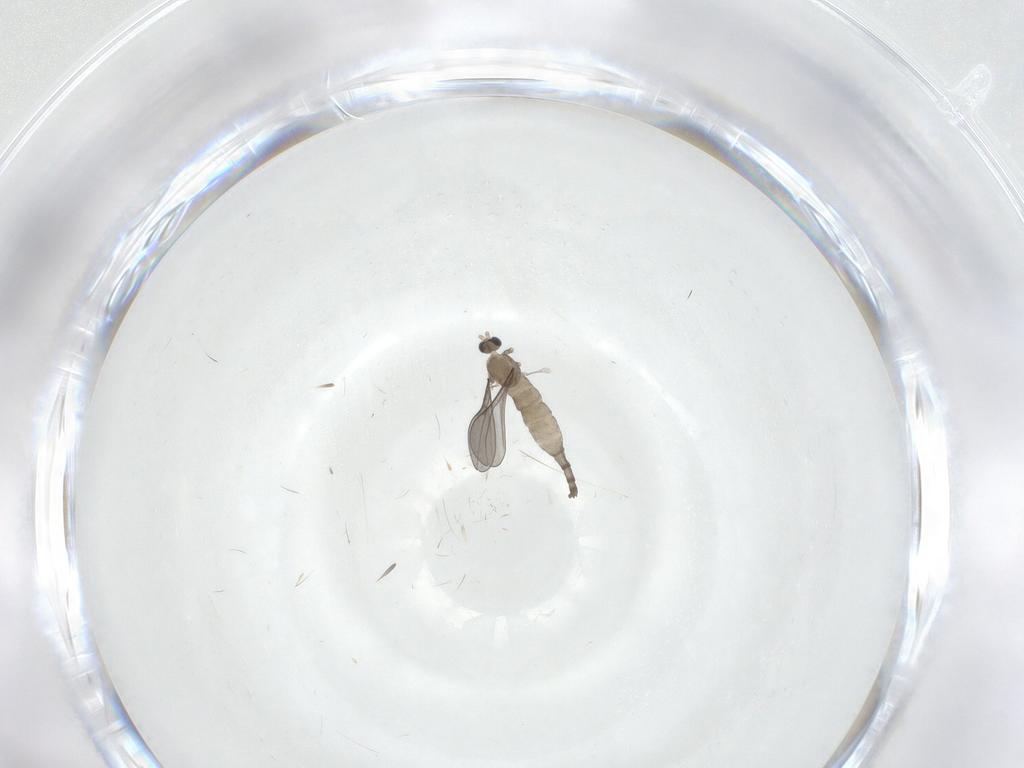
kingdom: Animalia
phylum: Arthropoda
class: Insecta
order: Diptera
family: Cecidomyiidae
